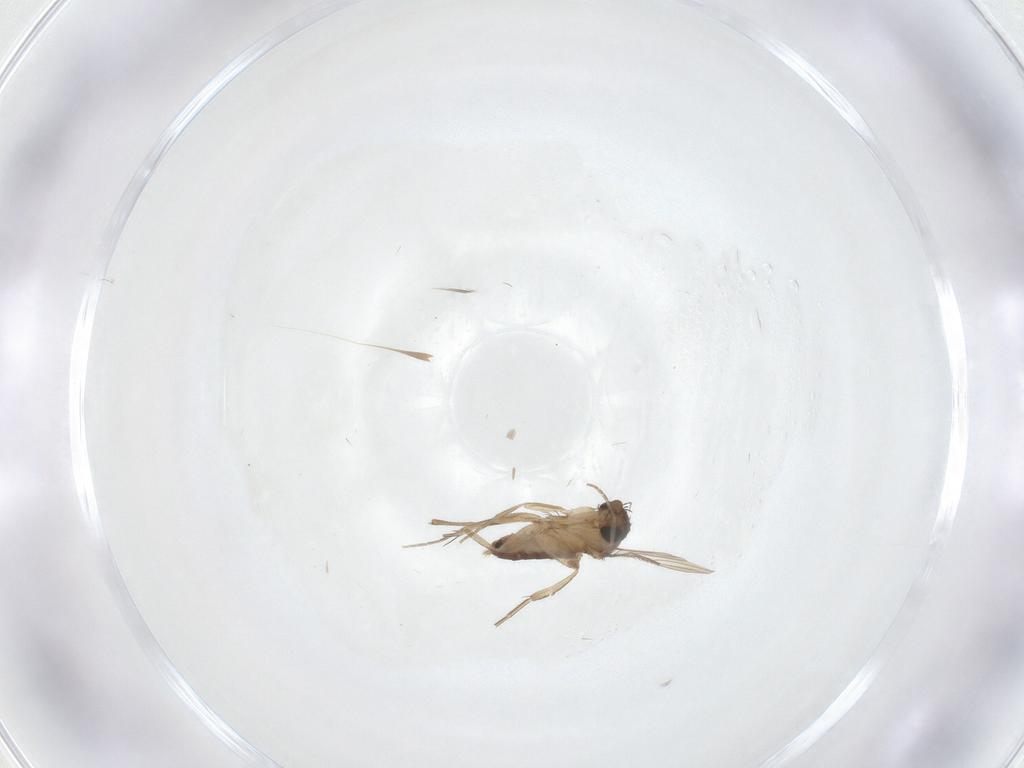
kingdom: Animalia
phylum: Arthropoda
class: Insecta
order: Diptera
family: Phoridae
